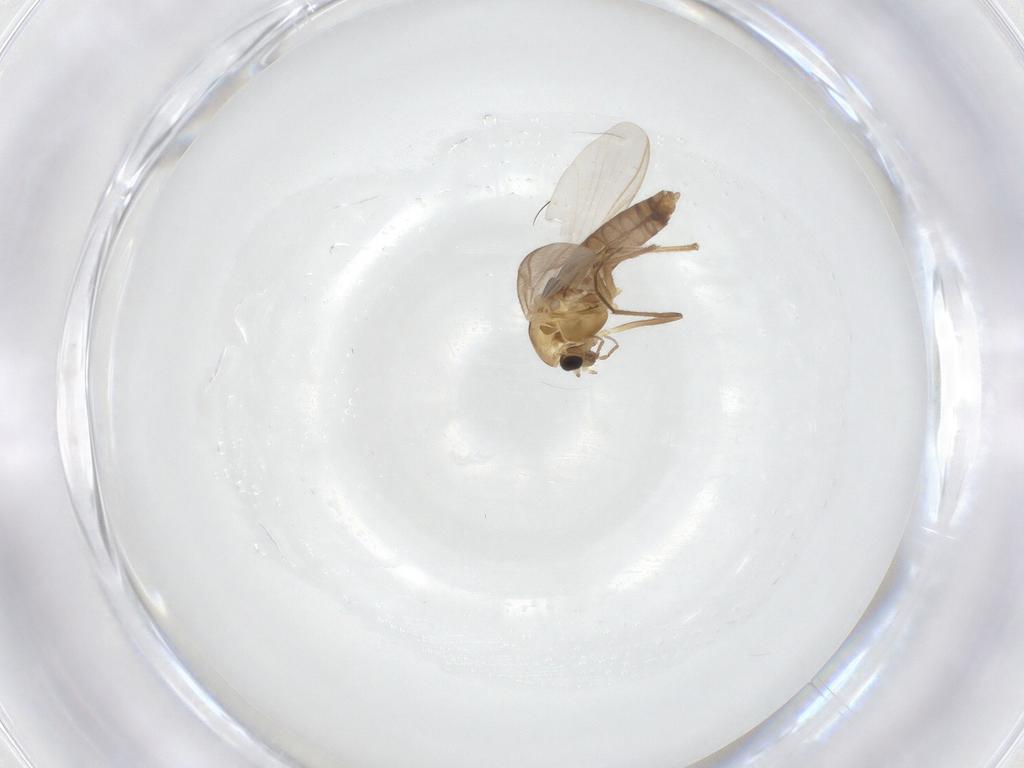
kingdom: Animalia
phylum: Arthropoda
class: Insecta
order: Diptera
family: Chironomidae
